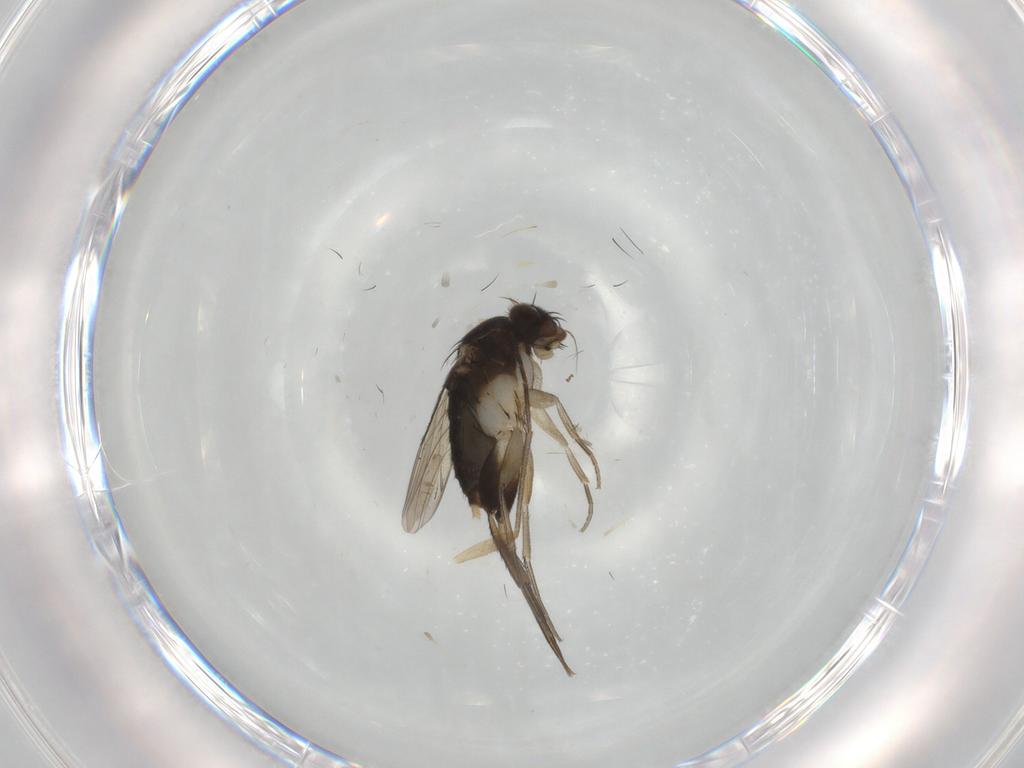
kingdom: Animalia
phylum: Arthropoda
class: Insecta
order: Diptera
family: Phoridae
